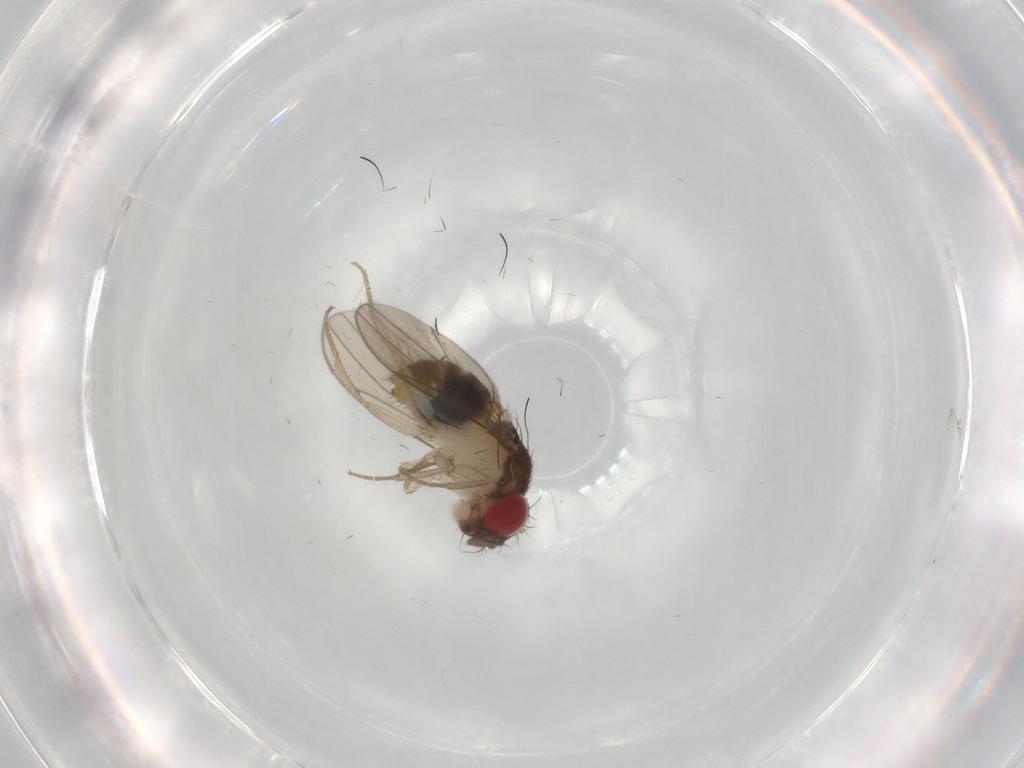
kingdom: Animalia
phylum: Arthropoda
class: Insecta
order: Diptera
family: Drosophilidae
